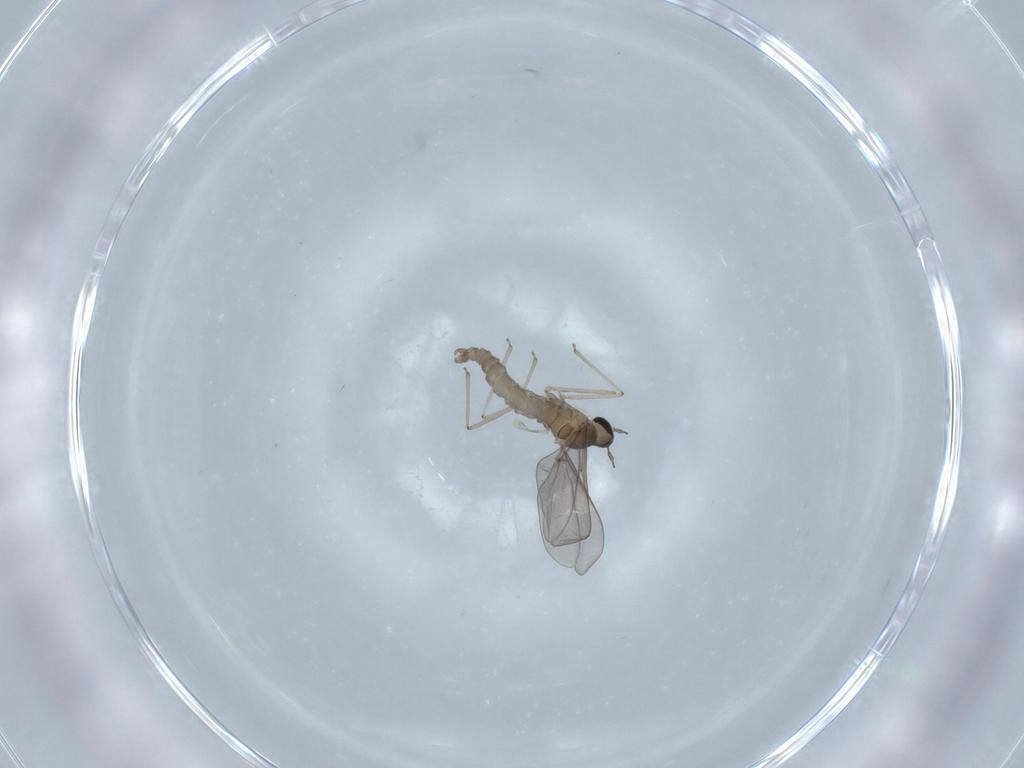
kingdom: Animalia
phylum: Arthropoda
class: Insecta
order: Diptera
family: Cecidomyiidae
